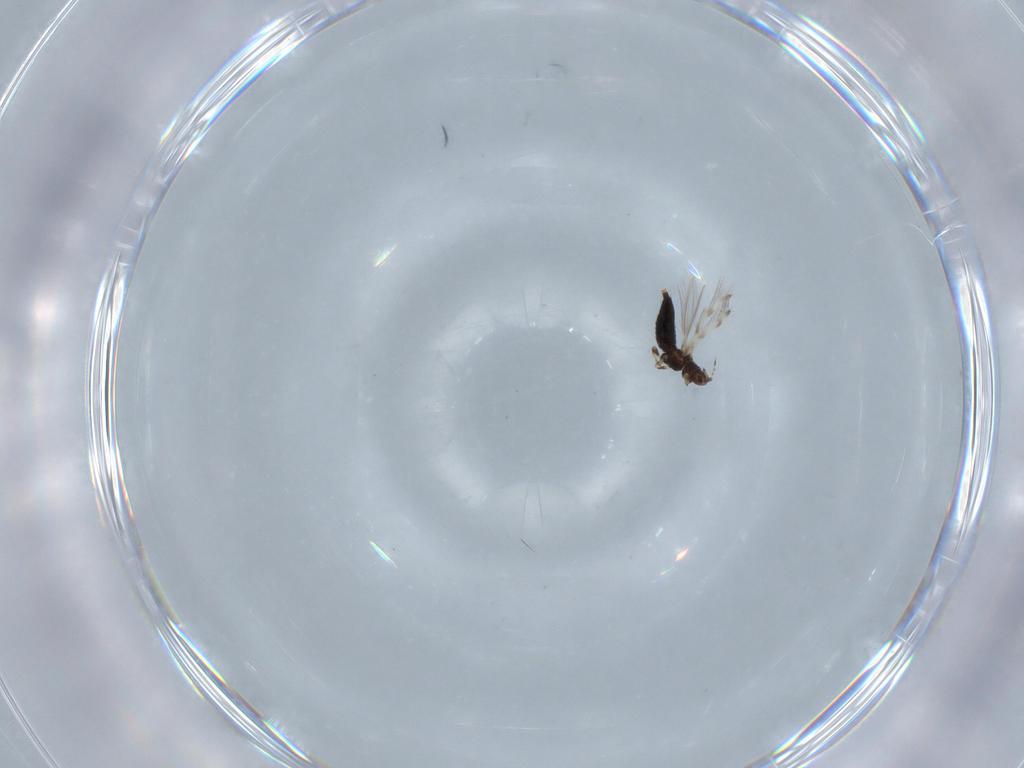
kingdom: Animalia
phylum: Arthropoda
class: Insecta
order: Thysanoptera
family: Thripidae
